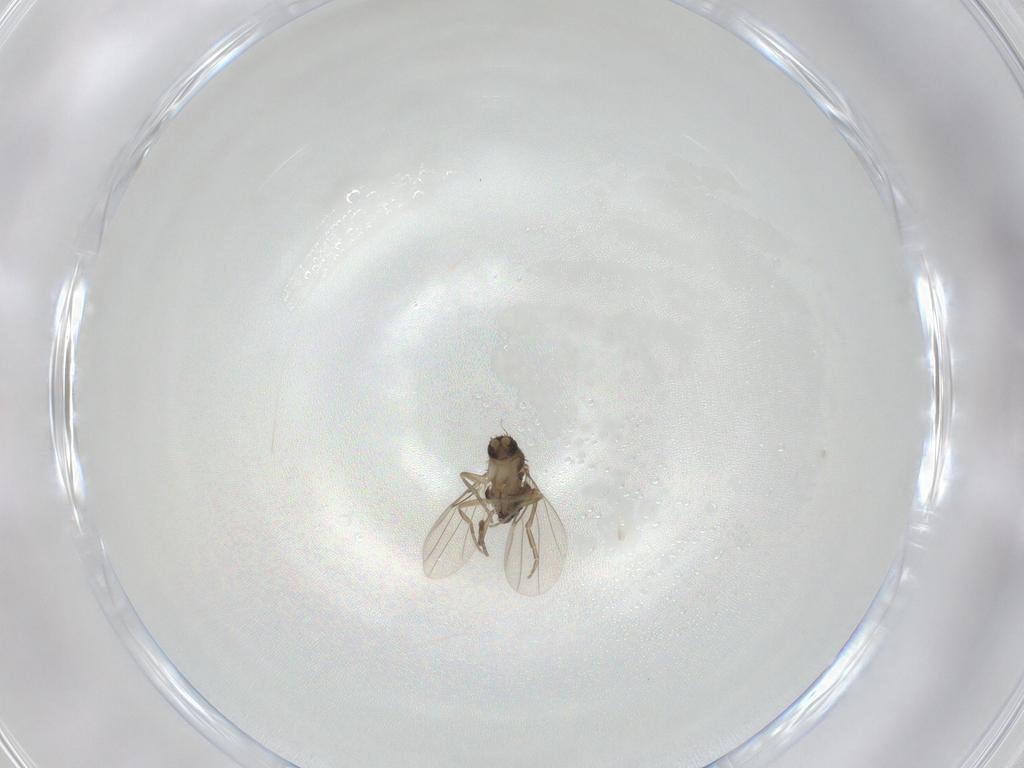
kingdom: Animalia
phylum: Arthropoda
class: Insecta
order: Diptera
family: Phoridae
